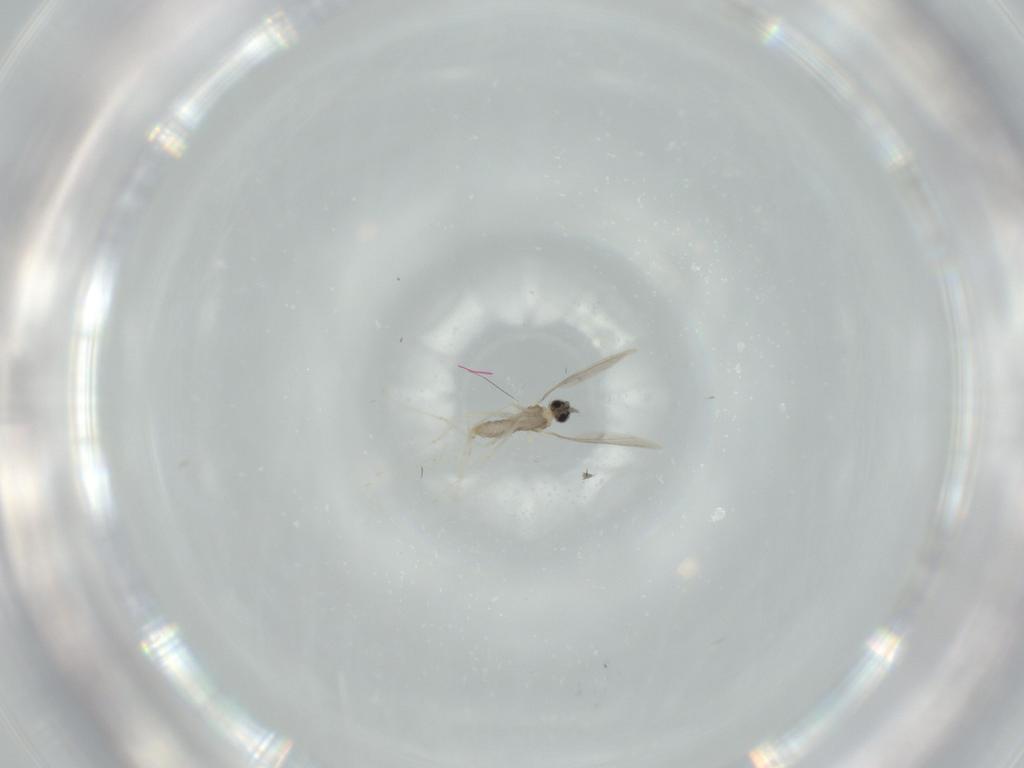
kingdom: Animalia
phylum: Arthropoda
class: Insecta
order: Diptera
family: Cecidomyiidae
